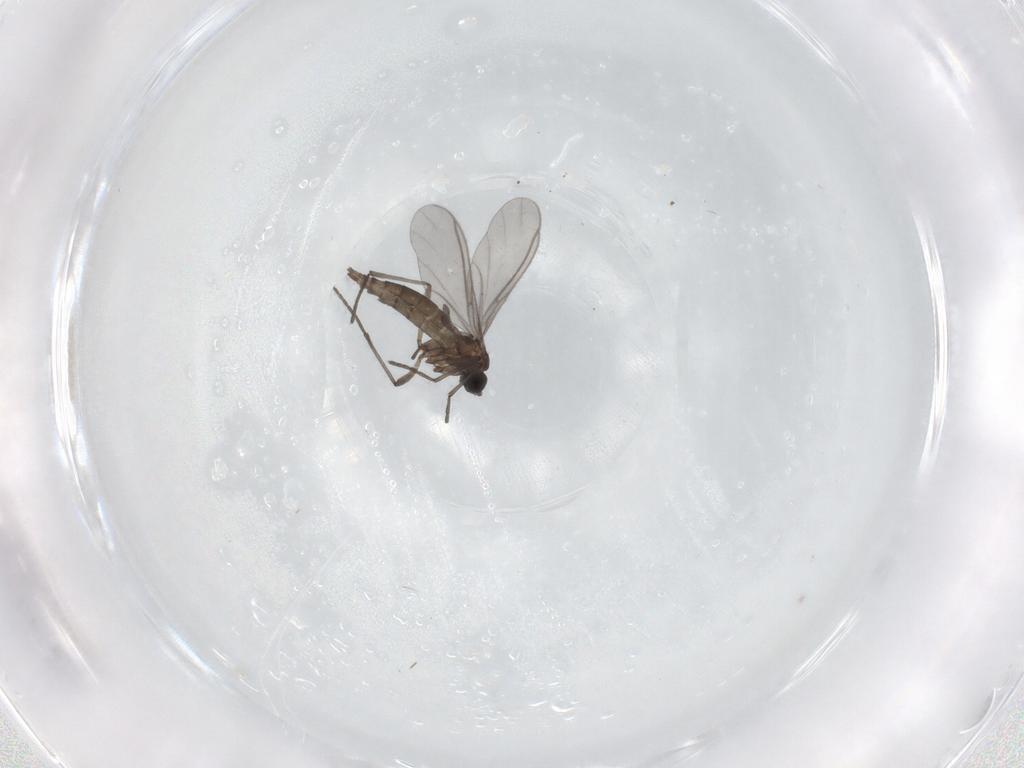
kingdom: Animalia
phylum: Arthropoda
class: Insecta
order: Diptera
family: Sciaridae
